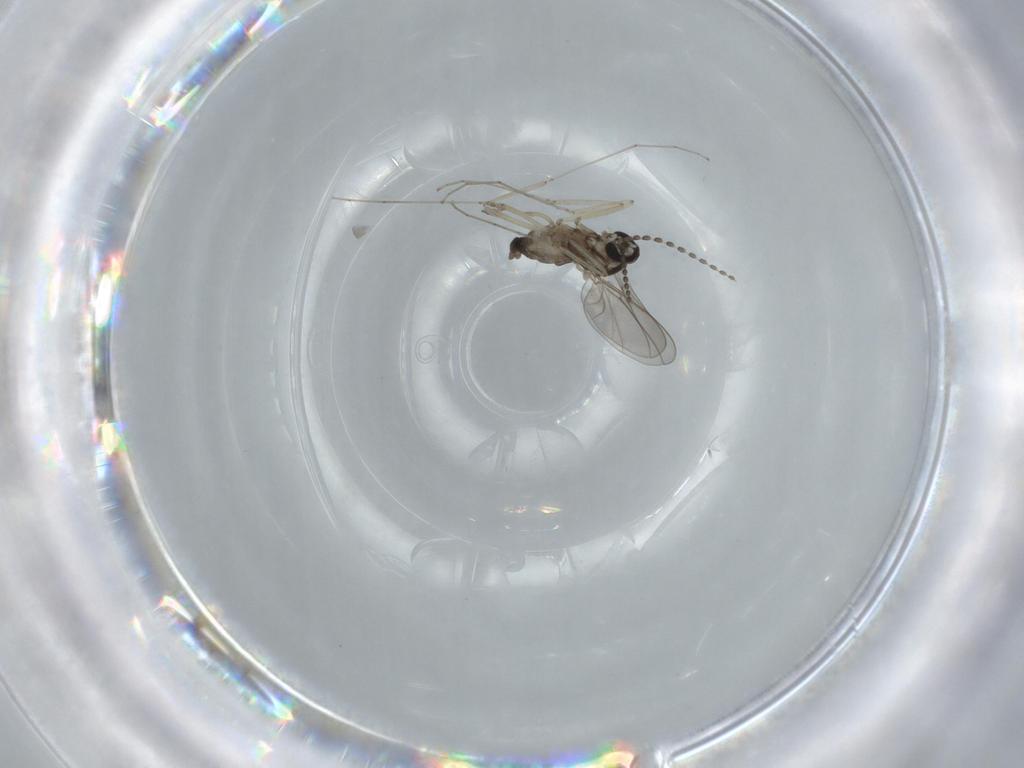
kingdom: Animalia
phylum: Arthropoda
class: Insecta
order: Diptera
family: Cecidomyiidae
